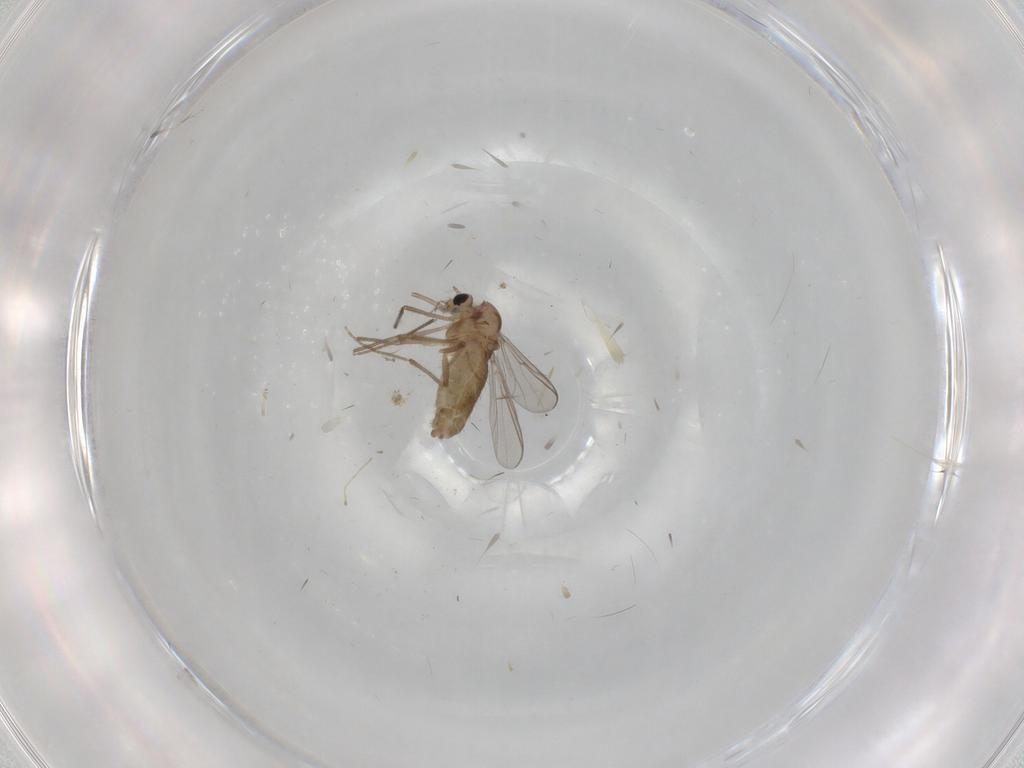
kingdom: Animalia
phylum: Arthropoda
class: Insecta
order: Diptera
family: Chironomidae
